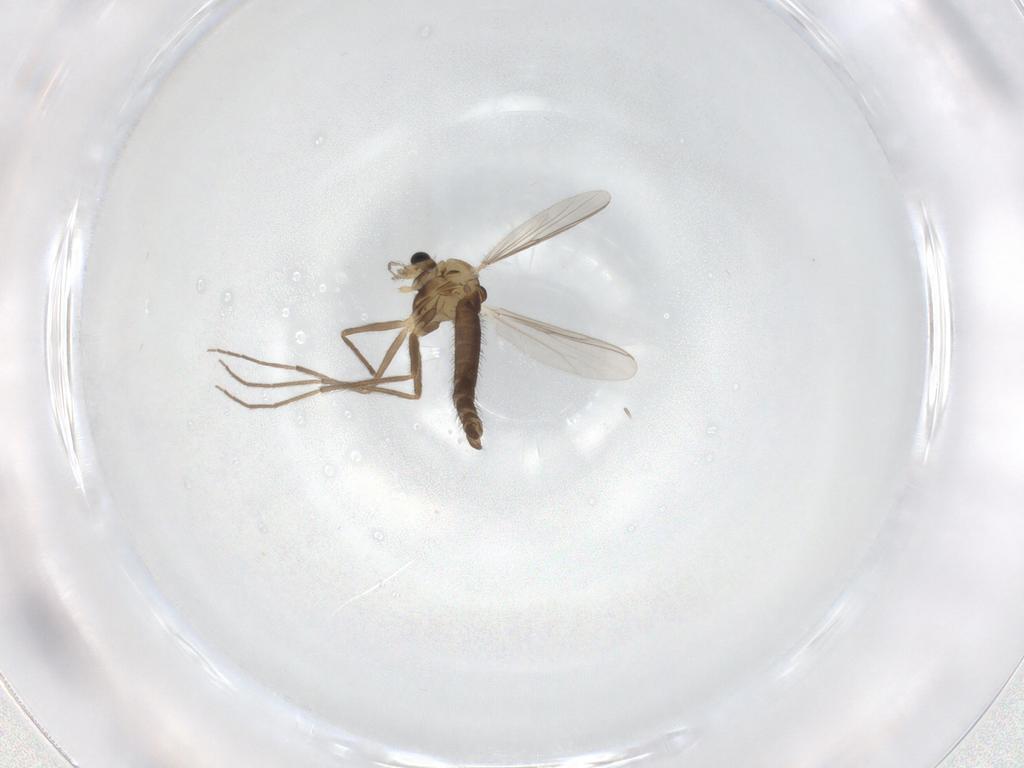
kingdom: Animalia
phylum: Arthropoda
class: Insecta
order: Diptera
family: Chironomidae
